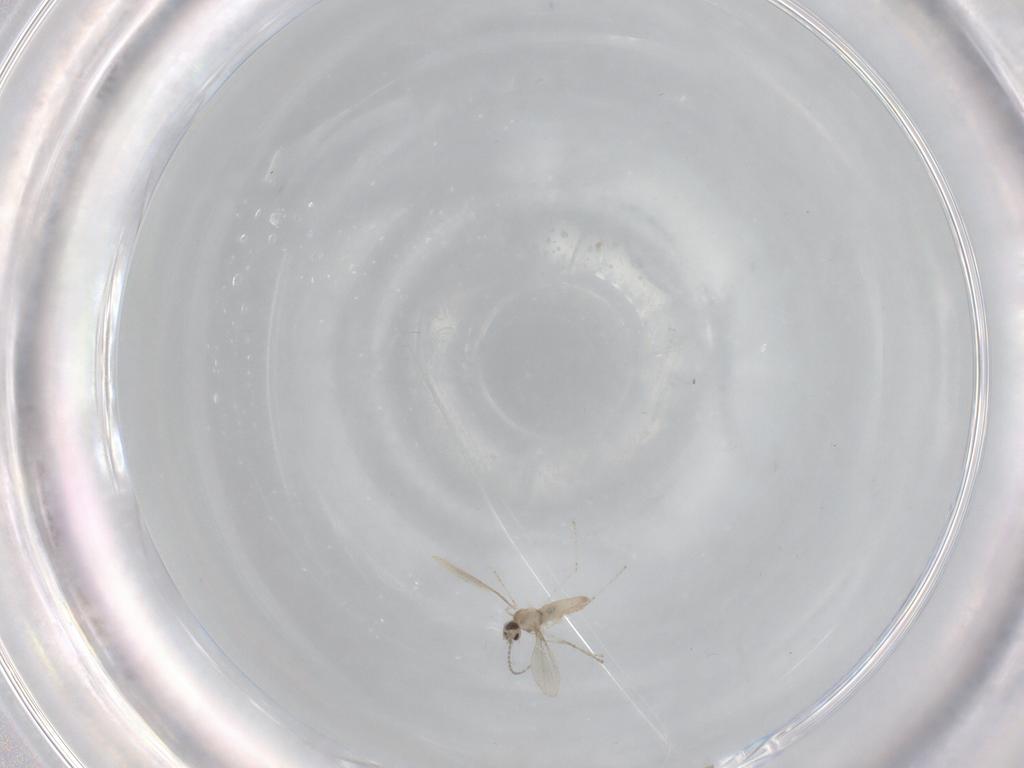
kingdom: Animalia
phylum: Arthropoda
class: Insecta
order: Diptera
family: Cecidomyiidae
